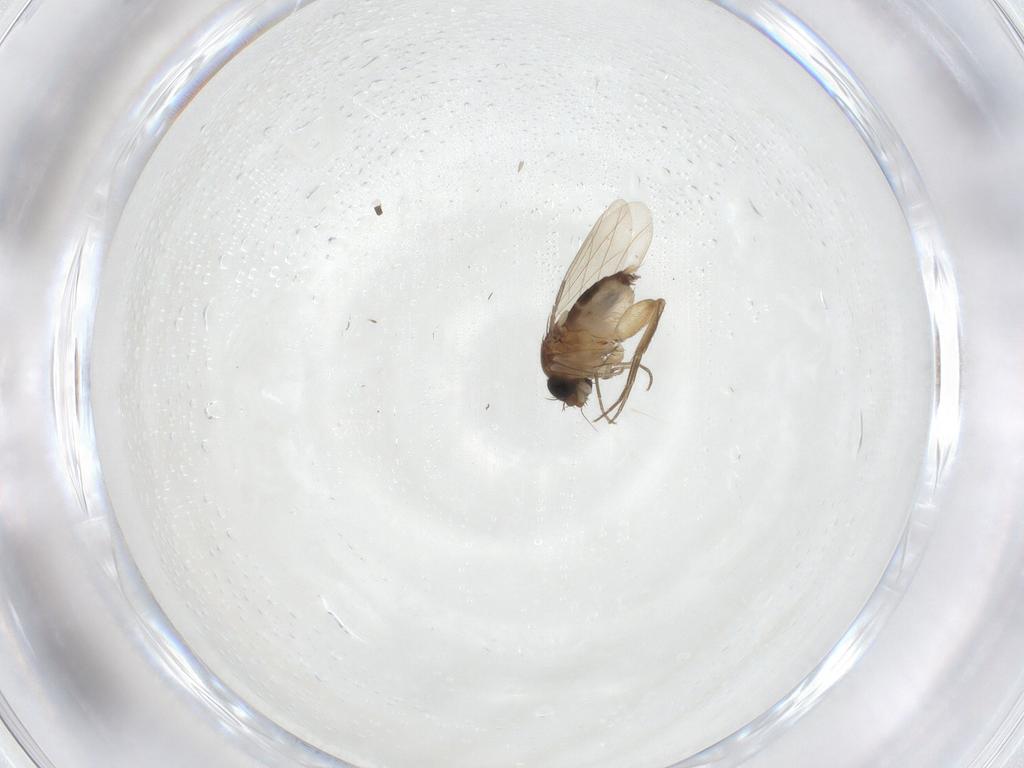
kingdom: Animalia
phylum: Arthropoda
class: Insecta
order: Diptera
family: Phoridae
